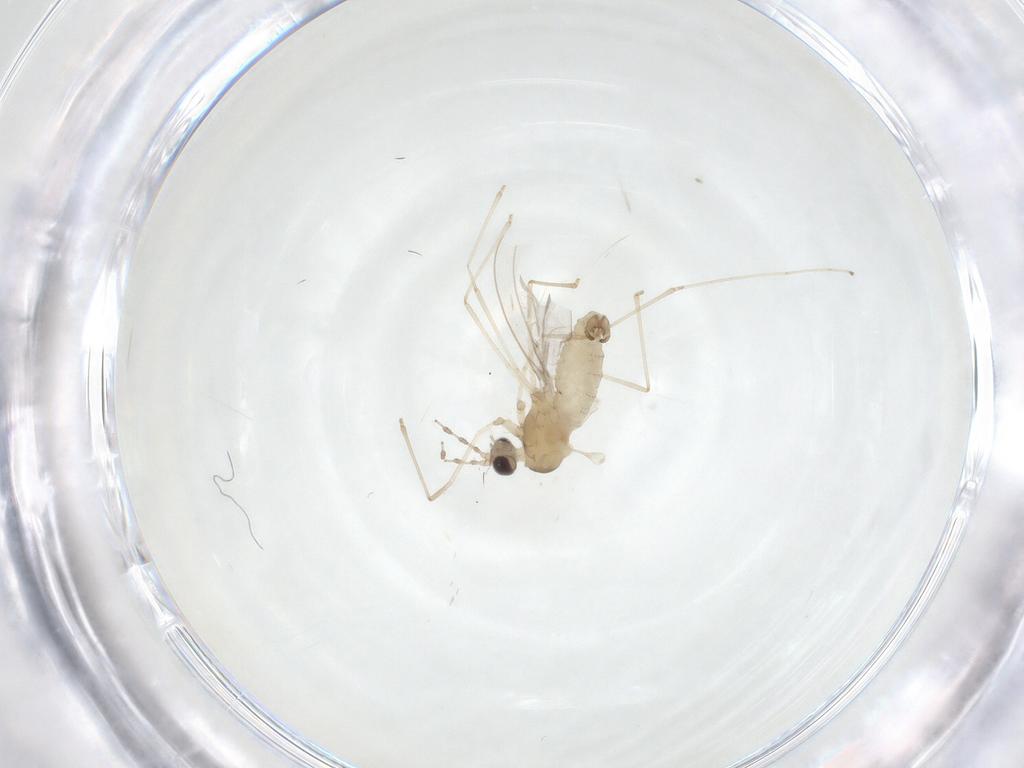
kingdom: Animalia
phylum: Arthropoda
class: Insecta
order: Diptera
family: Cecidomyiidae
